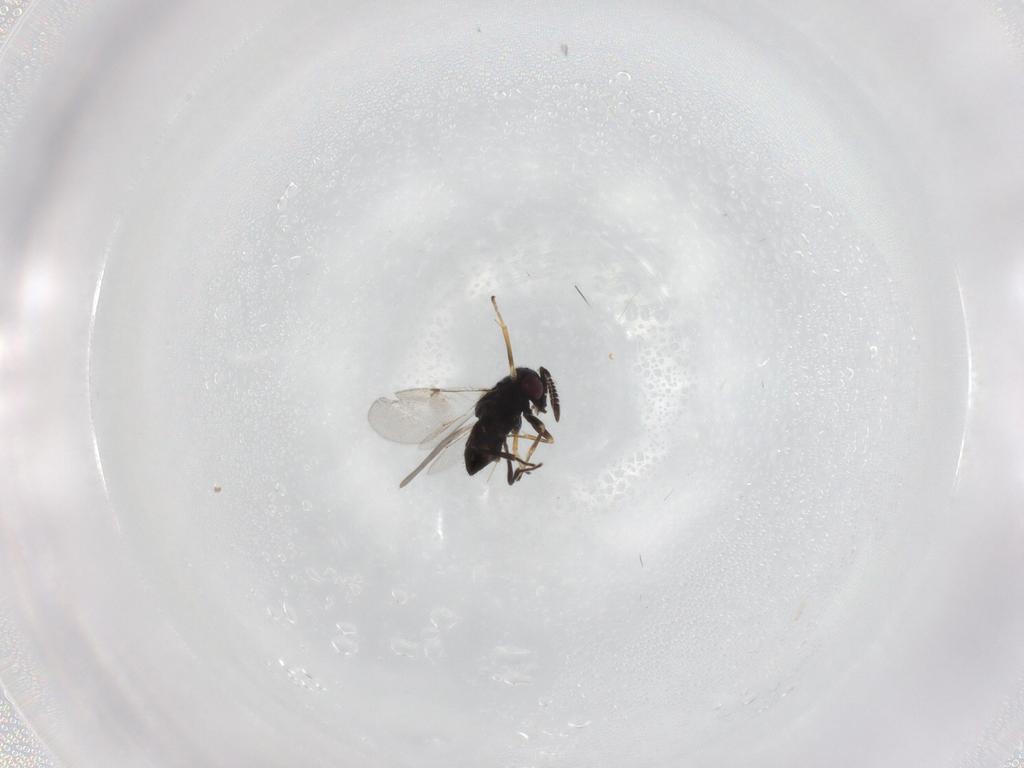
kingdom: Animalia
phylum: Arthropoda
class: Insecta
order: Hymenoptera
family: Encyrtidae
